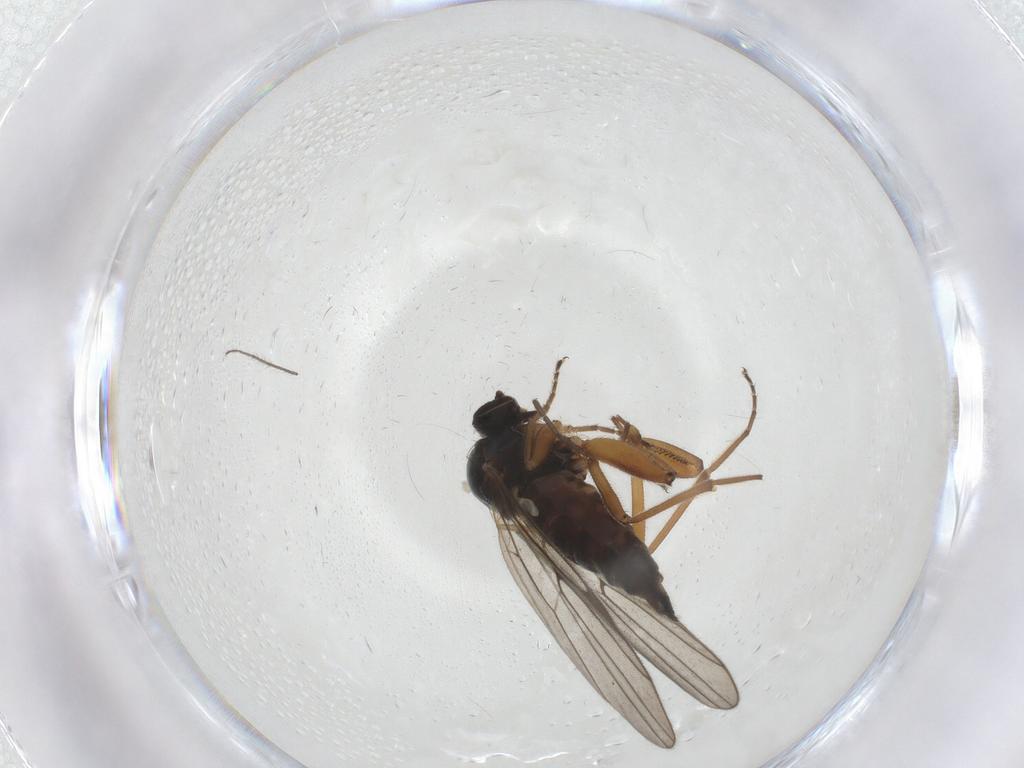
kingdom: Animalia
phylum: Arthropoda
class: Insecta
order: Diptera
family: Hybotidae
